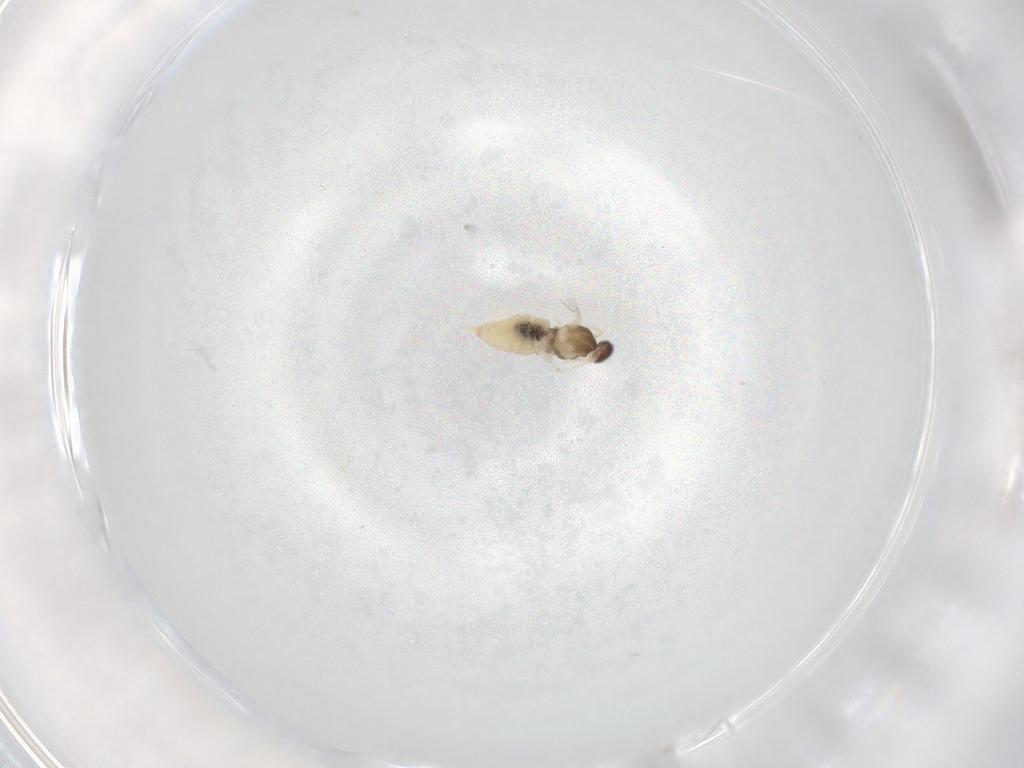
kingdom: Animalia
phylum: Arthropoda
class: Insecta
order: Diptera
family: Cecidomyiidae
